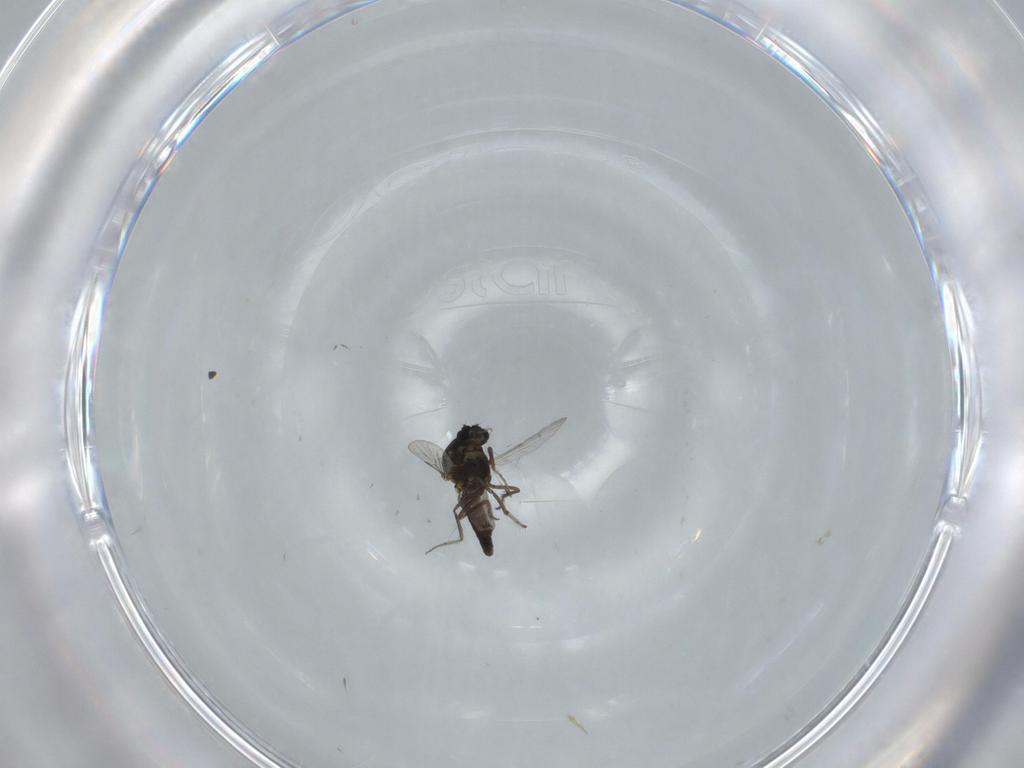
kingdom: Animalia
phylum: Arthropoda
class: Insecta
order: Diptera
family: Ceratopogonidae
